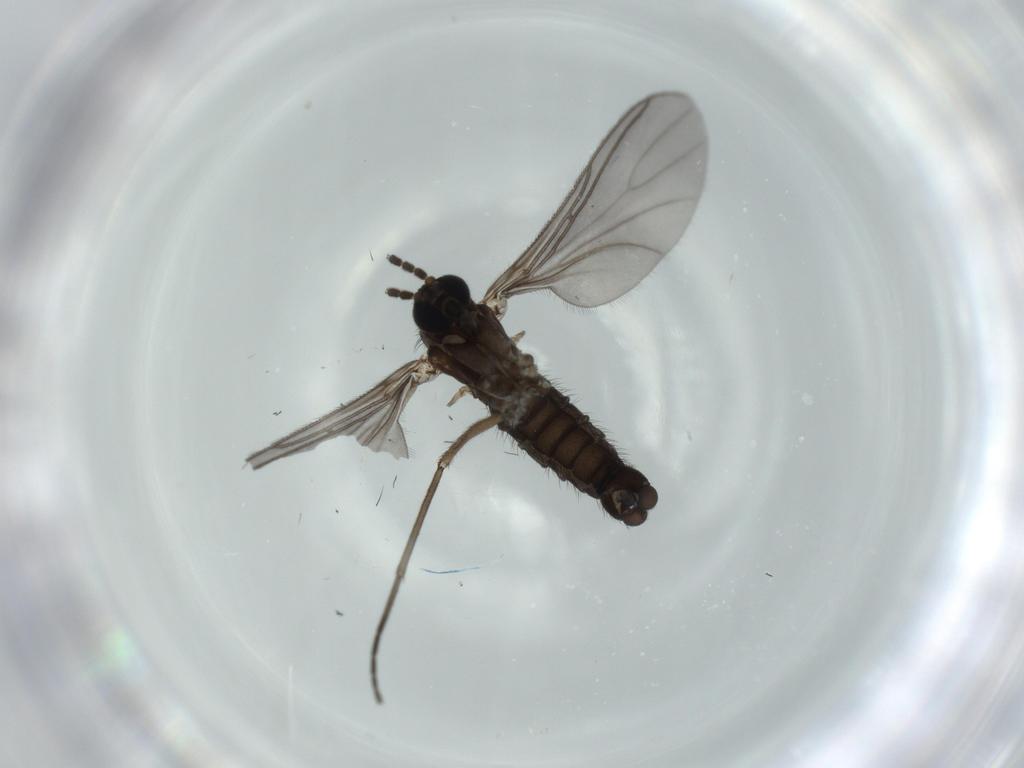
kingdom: Animalia
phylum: Arthropoda
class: Insecta
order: Diptera
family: Sciaridae
